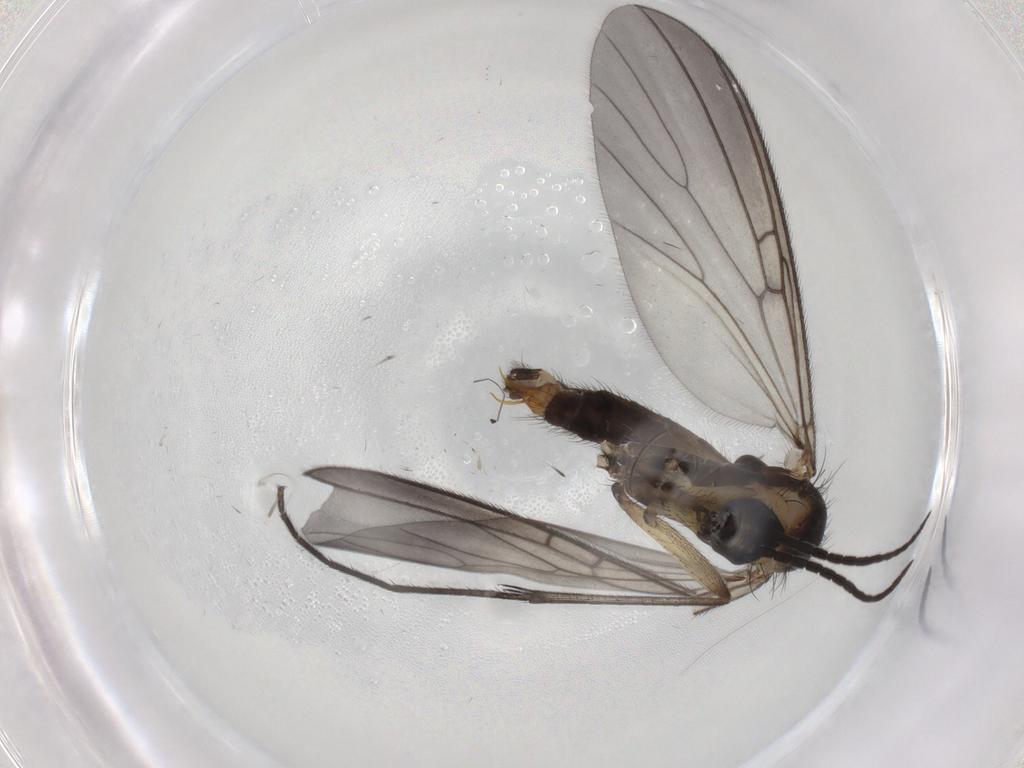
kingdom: Animalia
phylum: Arthropoda
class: Insecta
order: Diptera
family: Mycetophilidae
